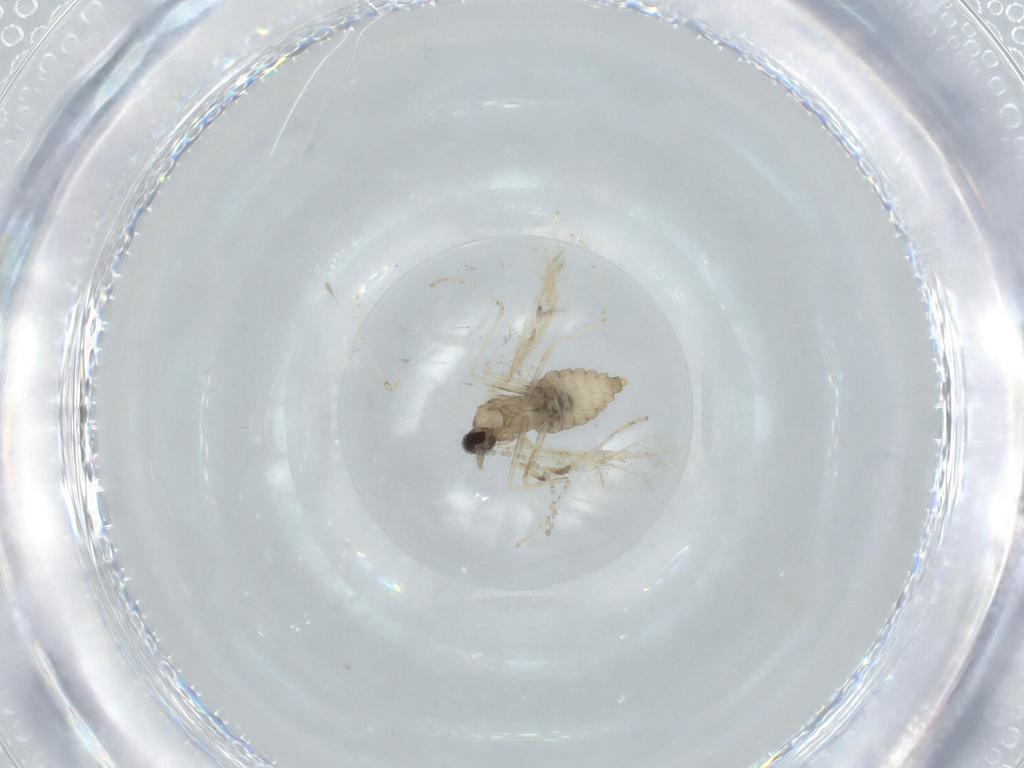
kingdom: Animalia
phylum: Arthropoda
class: Insecta
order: Diptera
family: Cecidomyiidae
